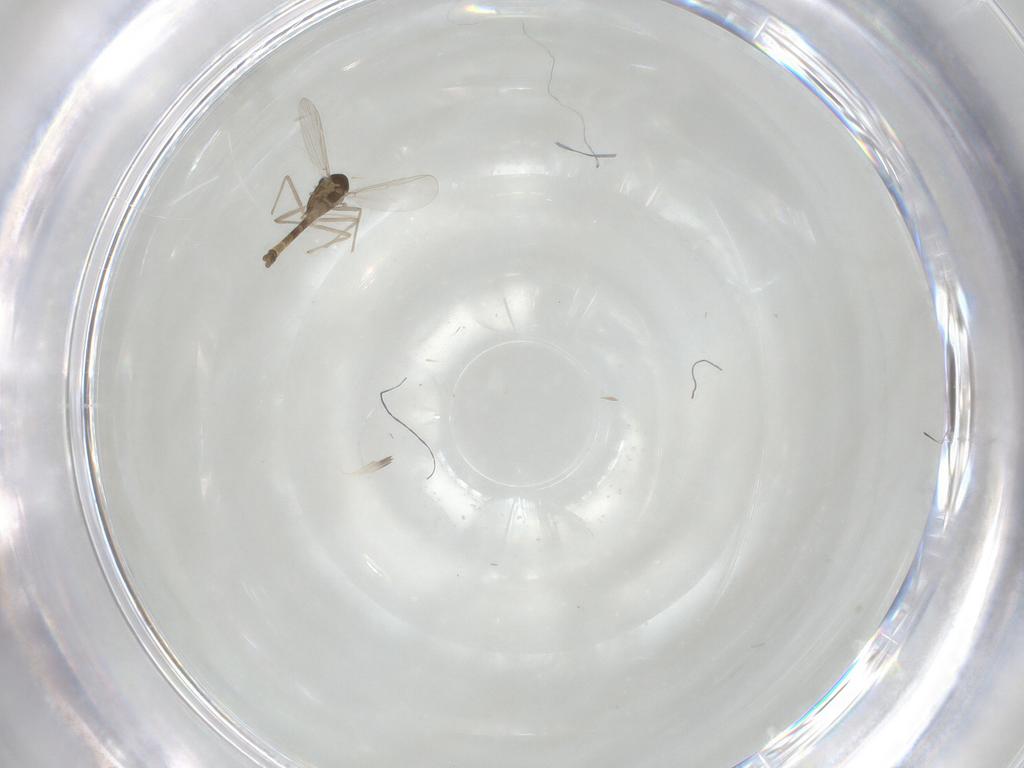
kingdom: Animalia
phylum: Arthropoda
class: Insecta
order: Diptera
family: Chironomidae
